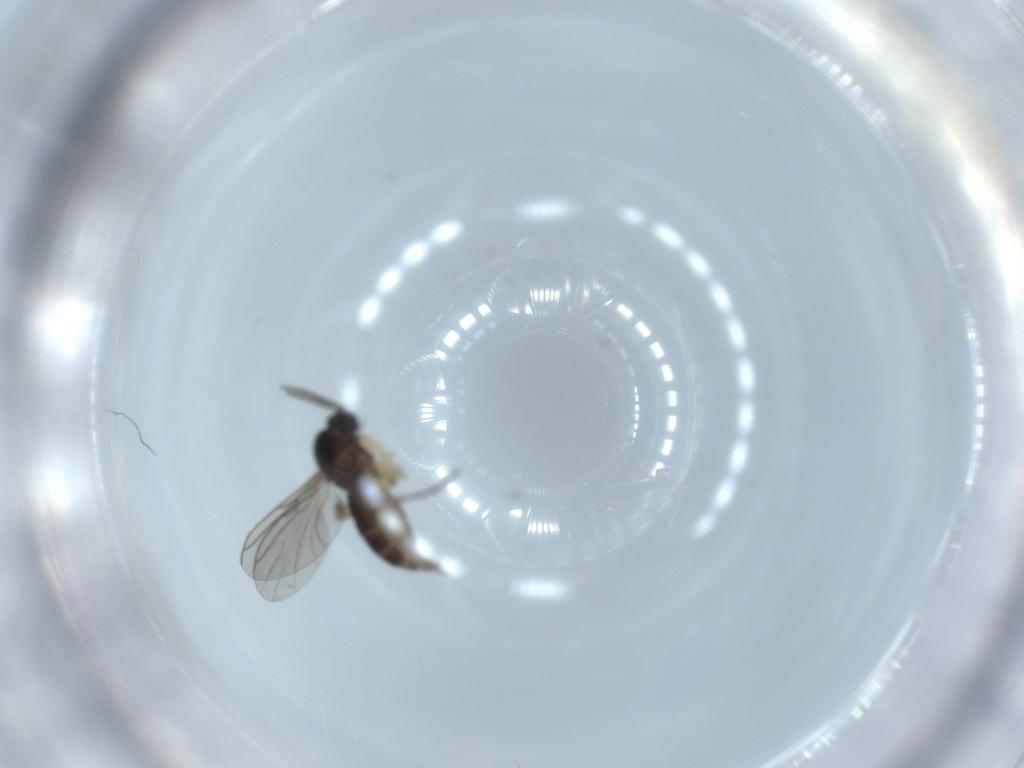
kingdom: Animalia
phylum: Arthropoda
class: Insecta
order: Diptera
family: Sciaridae
